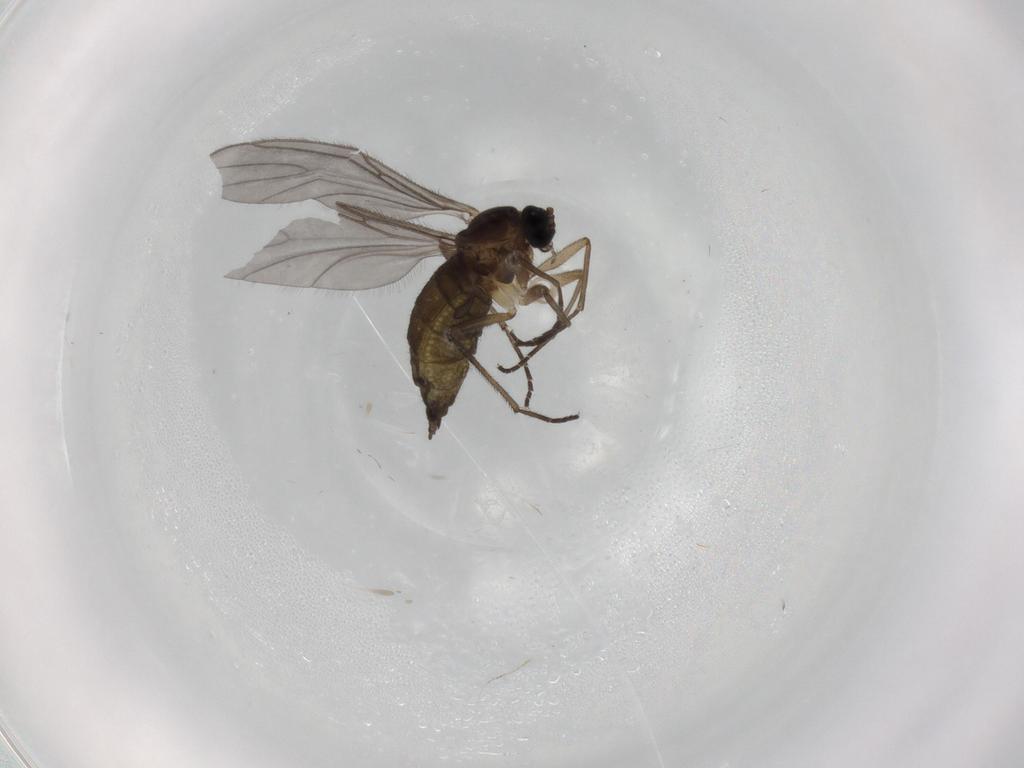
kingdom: Animalia
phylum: Arthropoda
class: Insecta
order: Diptera
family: Sciaridae
